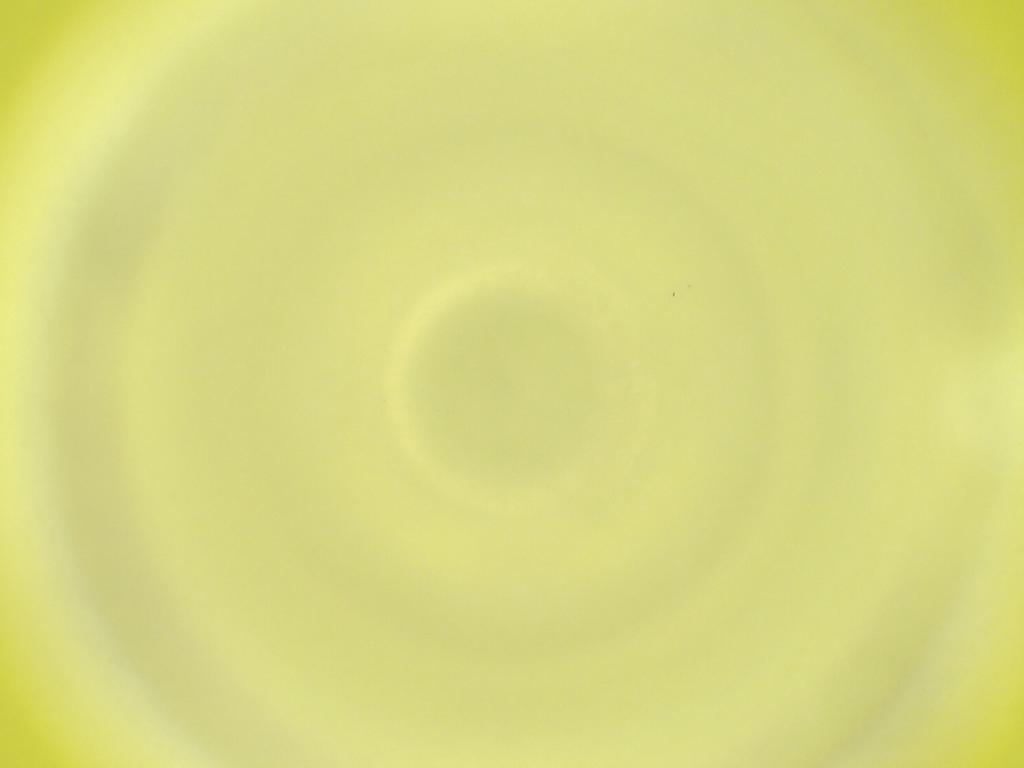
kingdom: Animalia
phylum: Arthropoda
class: Insecta
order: Diptera
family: Cecidomyiidae
